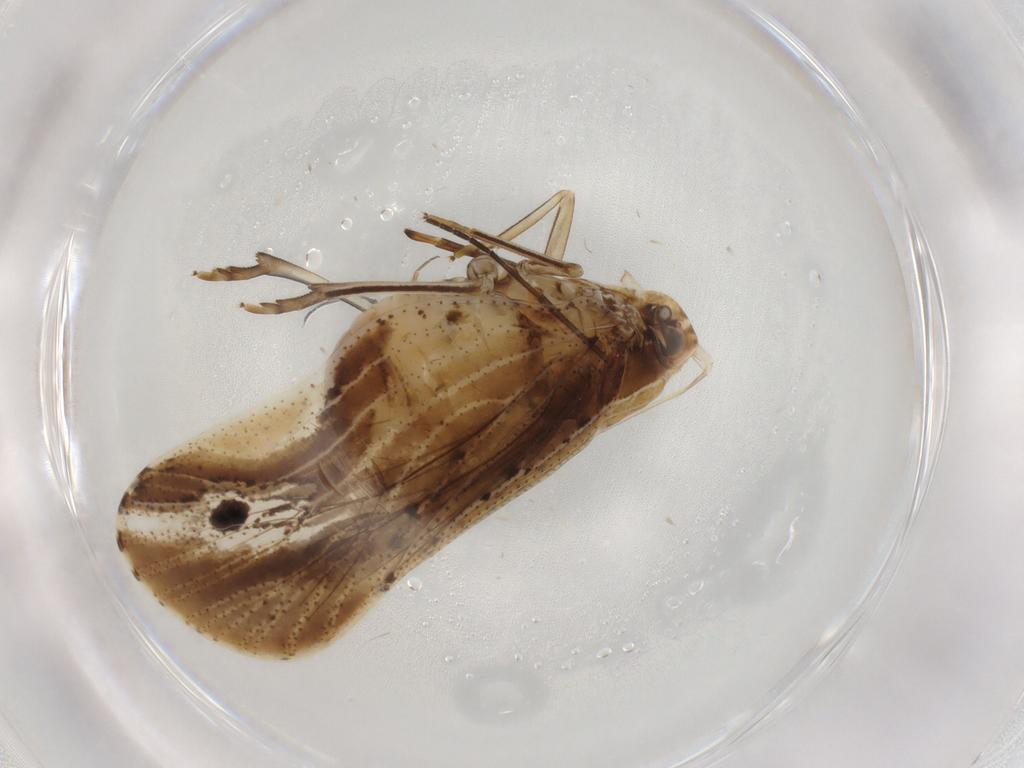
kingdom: Animalia
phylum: Arthropoda
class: Insecta
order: Hemiptera
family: Cixiidae
